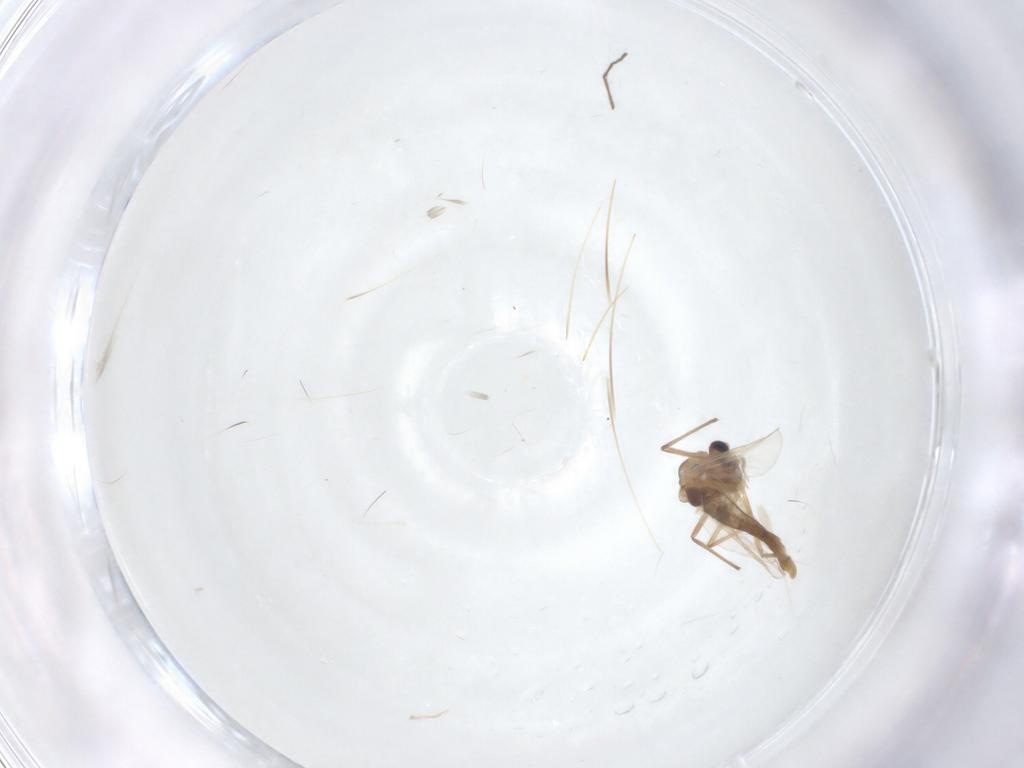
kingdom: Animalia
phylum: Arthropoda
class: Insecta
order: Diptera
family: Chironomidae
